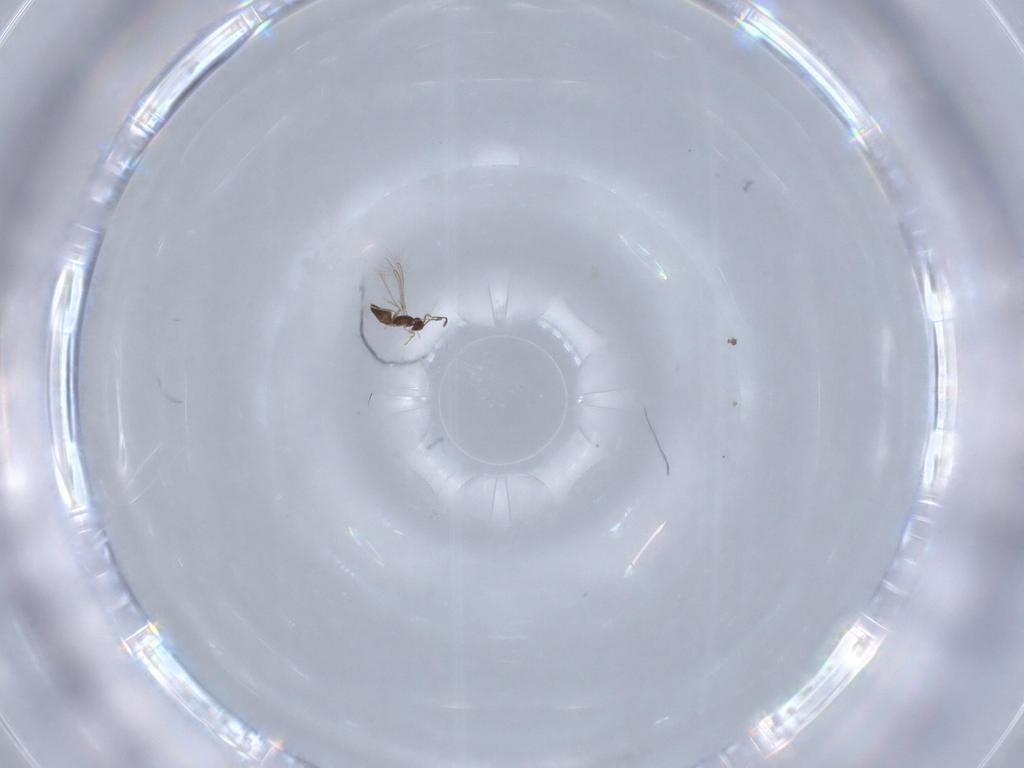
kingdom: Animalia
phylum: Arthropoda
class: Insecta
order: Hymenoptera
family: Mymaridae
